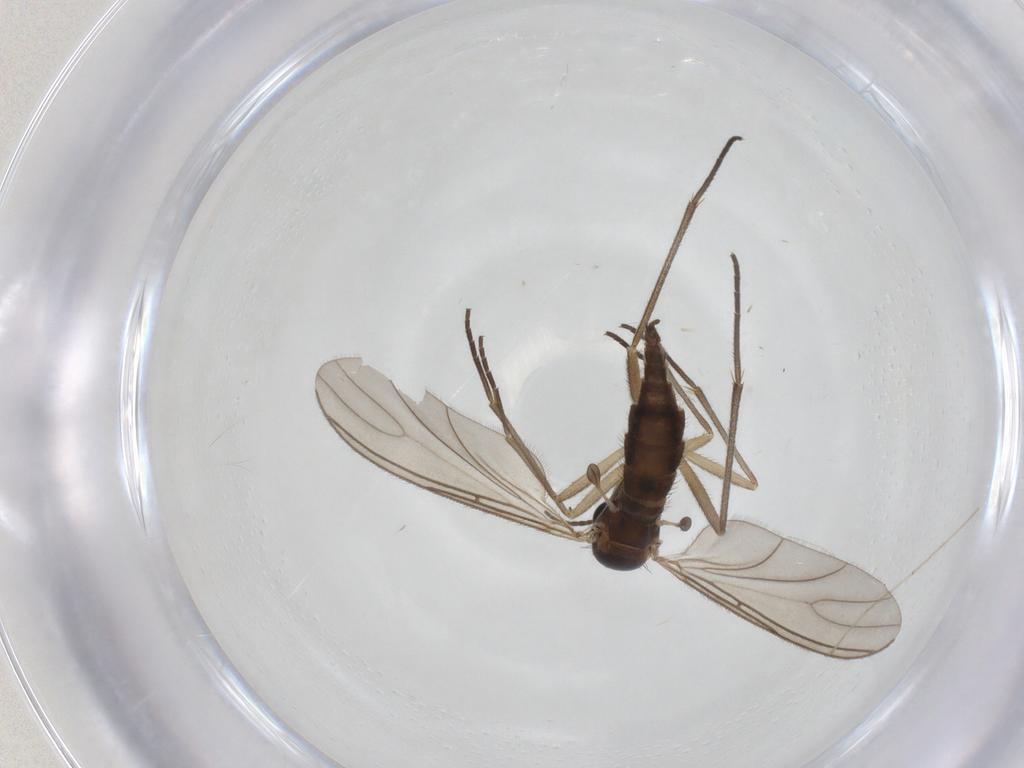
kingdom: Animalia
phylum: Arthropoda
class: Insecta
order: Diptera
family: Sciaridae
